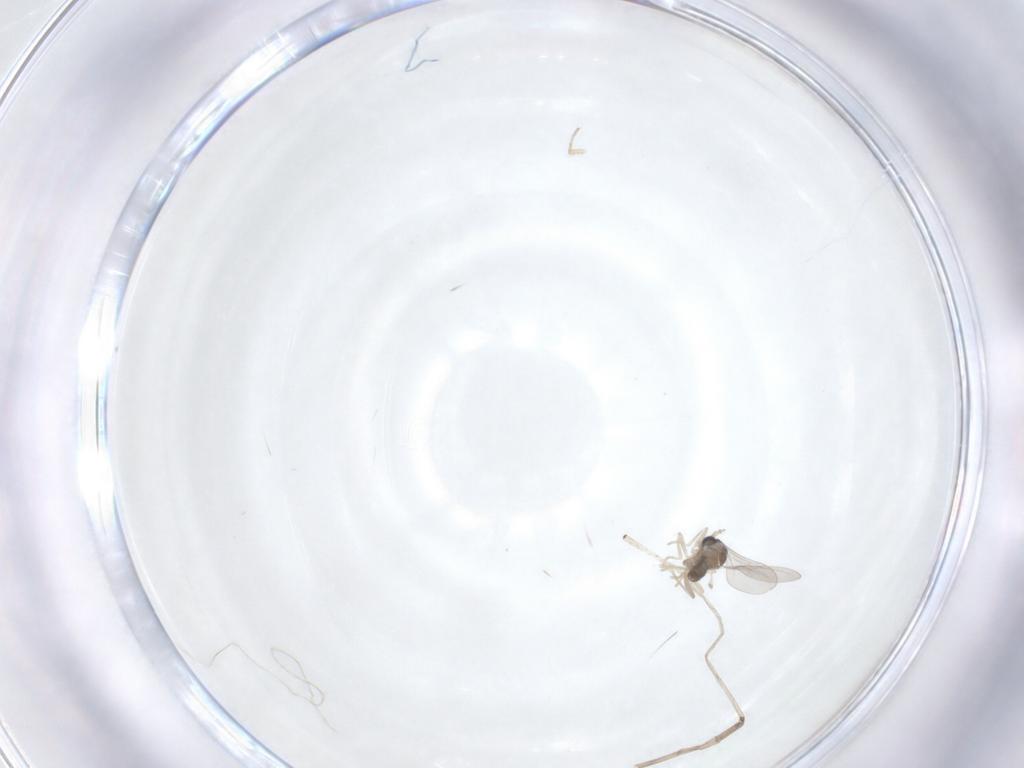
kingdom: Animalia
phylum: Arthropoda
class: Insecta
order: Diptera
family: Cecidomyiidae
